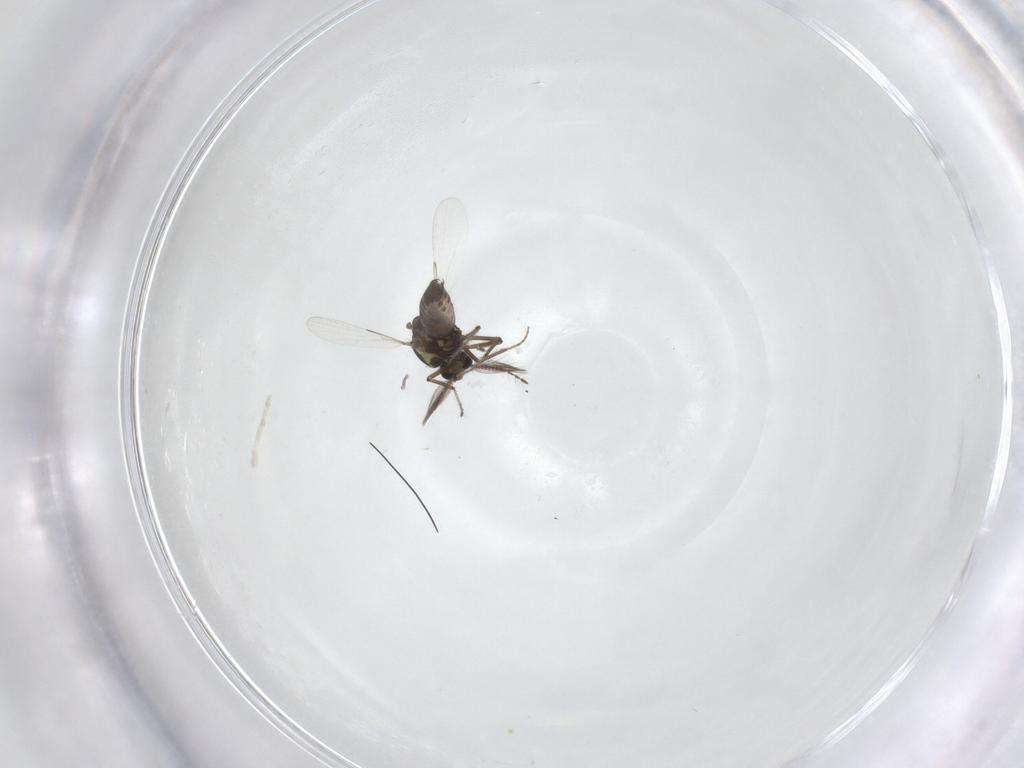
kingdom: Animalia
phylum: Arthropoda
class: Insecta
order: Diptera
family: Ceratopogonidae
